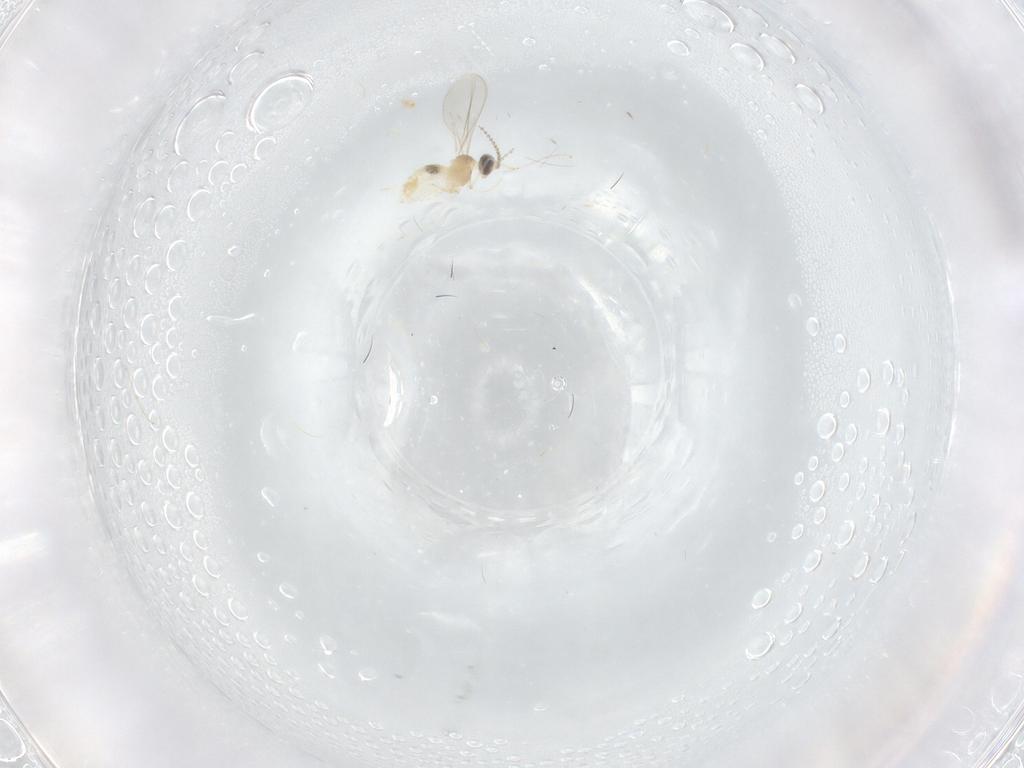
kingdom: Animalia
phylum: Arthropoda
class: Insecta
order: Diptera
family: Cecidomyiidae
